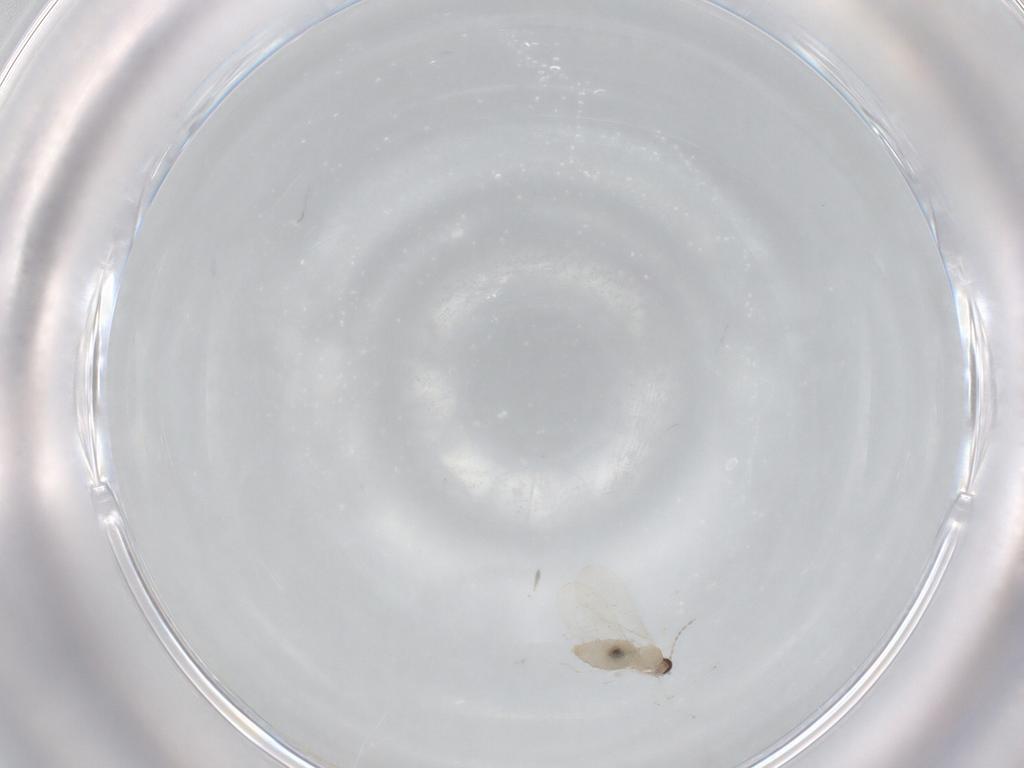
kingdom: Animalia
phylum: Arthropoda
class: Insecta
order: Diptera
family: Cecidomyiidae
